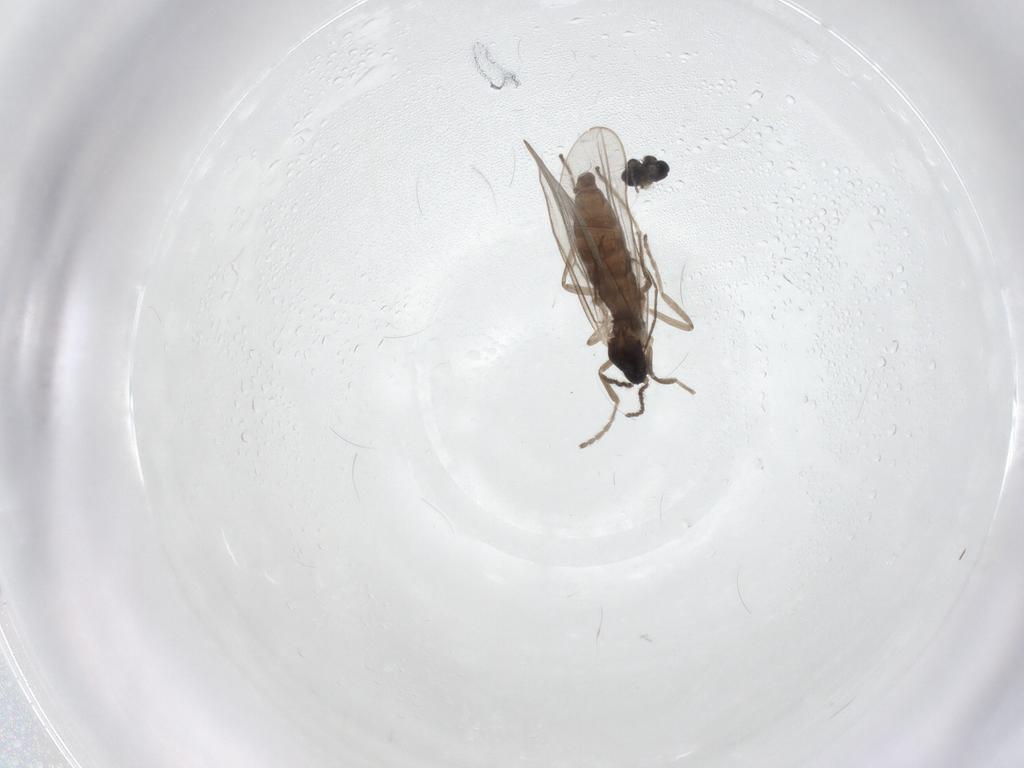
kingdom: Animalia
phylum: Arthropoda
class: Insecta
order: Diptera
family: Cecidomyiidae
